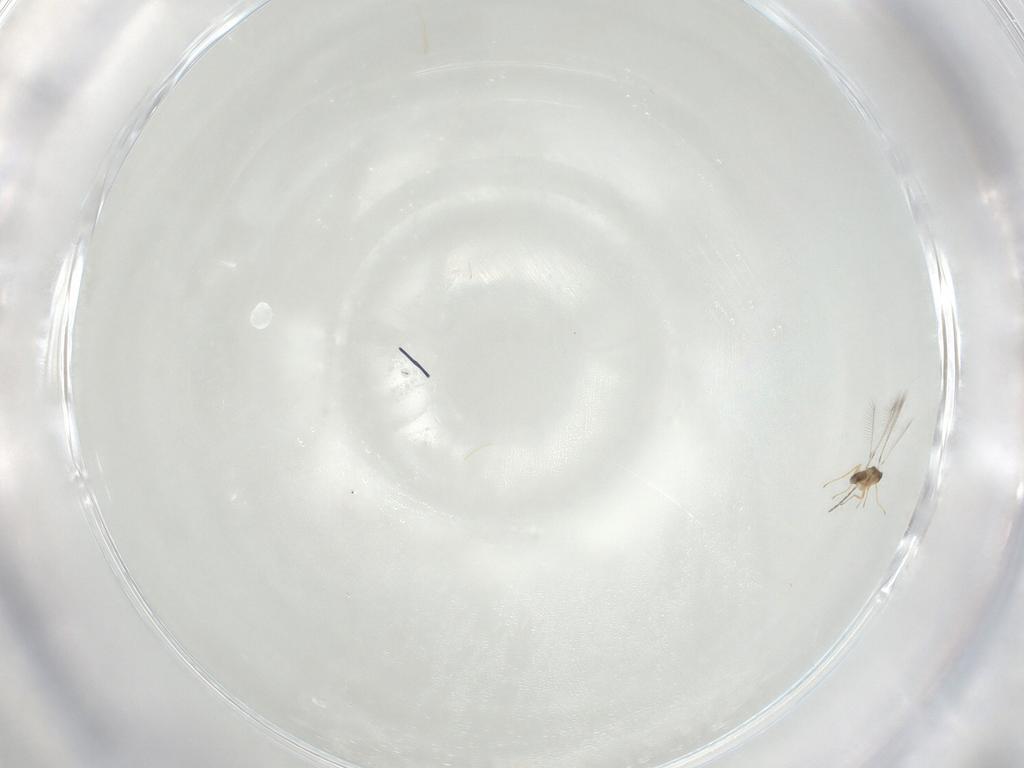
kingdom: Animalia
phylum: Arthropoda
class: Insecta
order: Hymenoptera
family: Mymaridae
